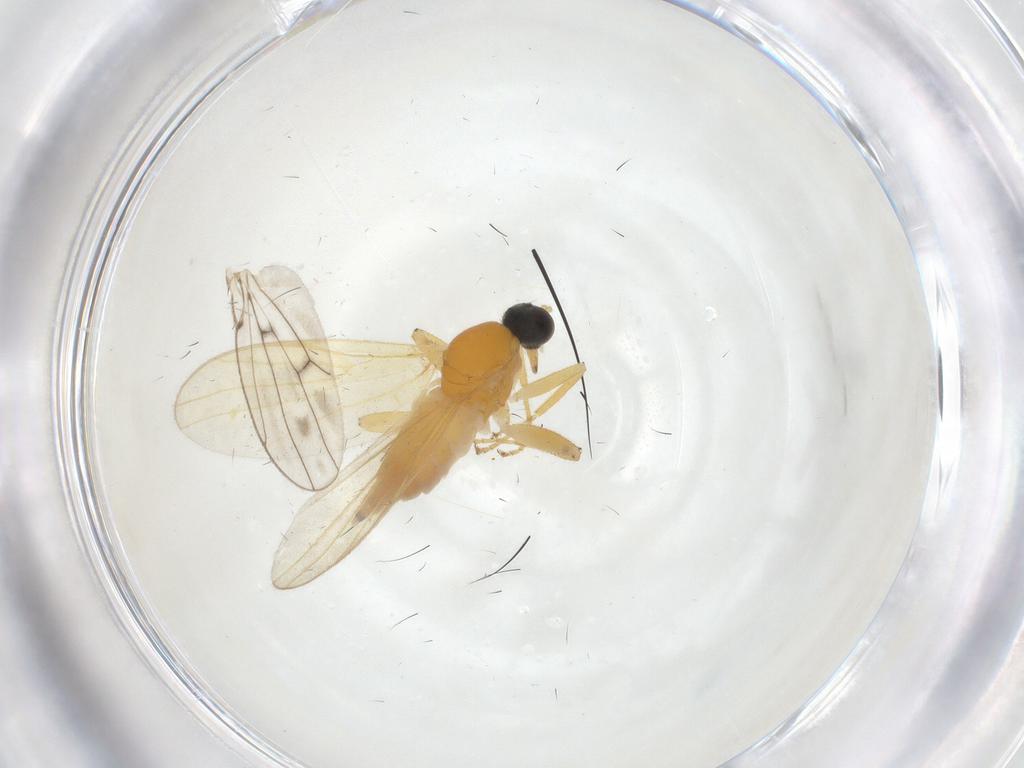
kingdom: Animalia
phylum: Arthropoda
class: Insecta
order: Diptera
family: Hybotidae
